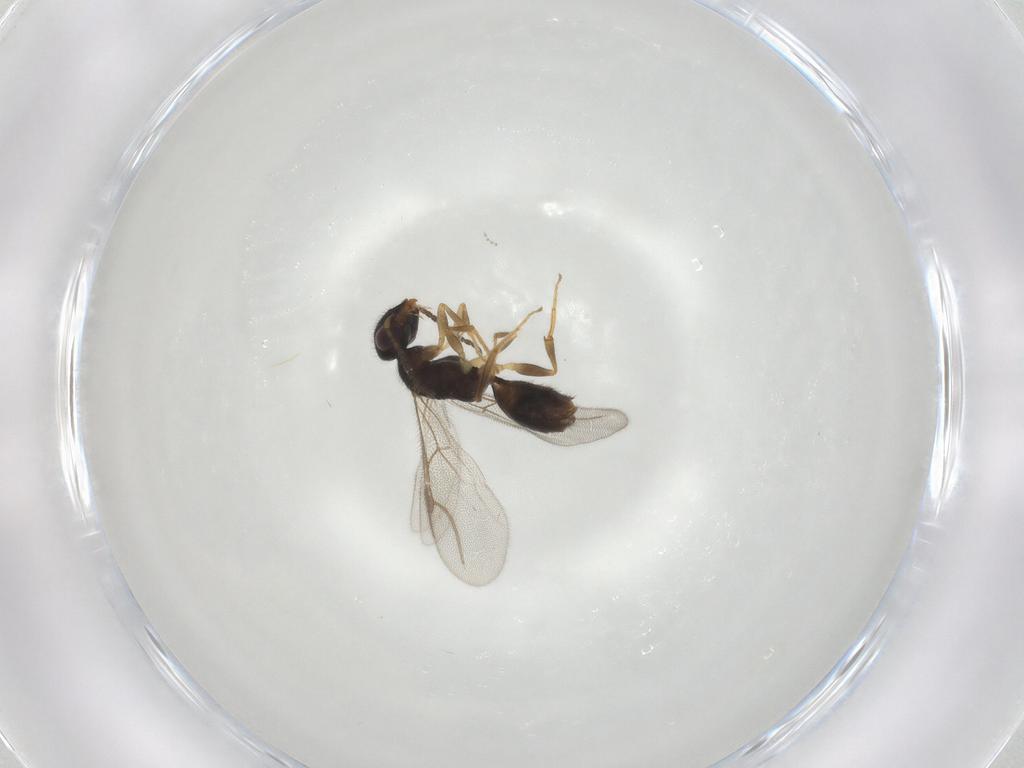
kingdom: Animalia
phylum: Arthropoda
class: Insecta
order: Hymenoptera
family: Bethylidae
